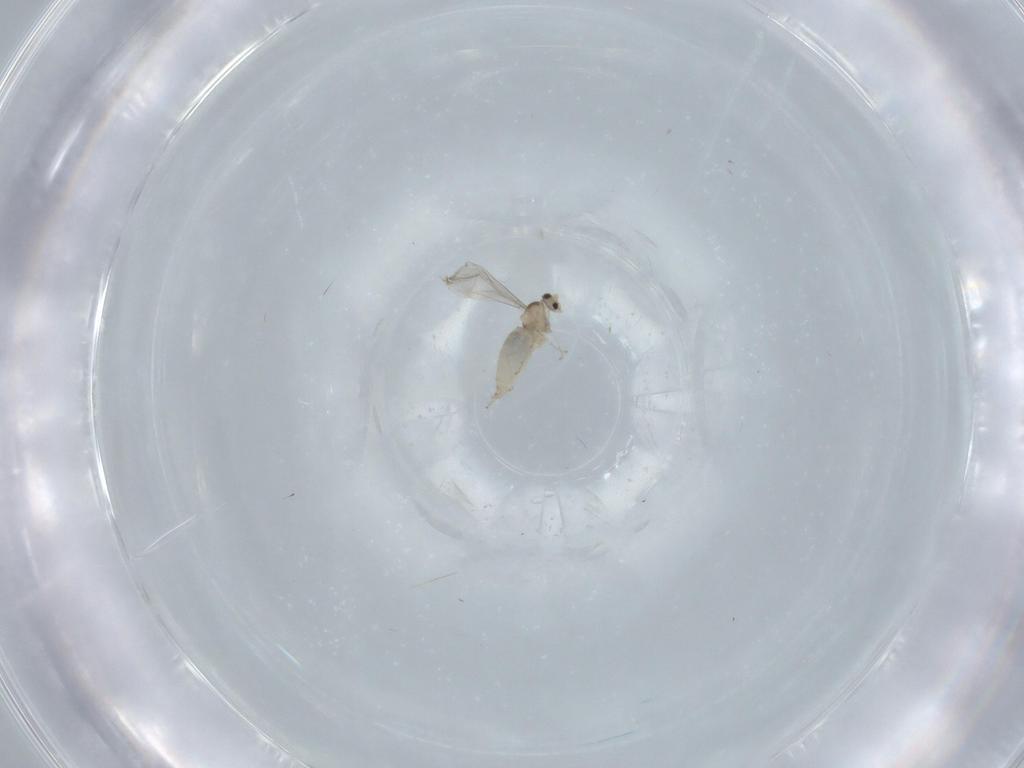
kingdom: Animalia
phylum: Arthropoda
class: Insecta
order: Diptera
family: Cecidomyiidae
